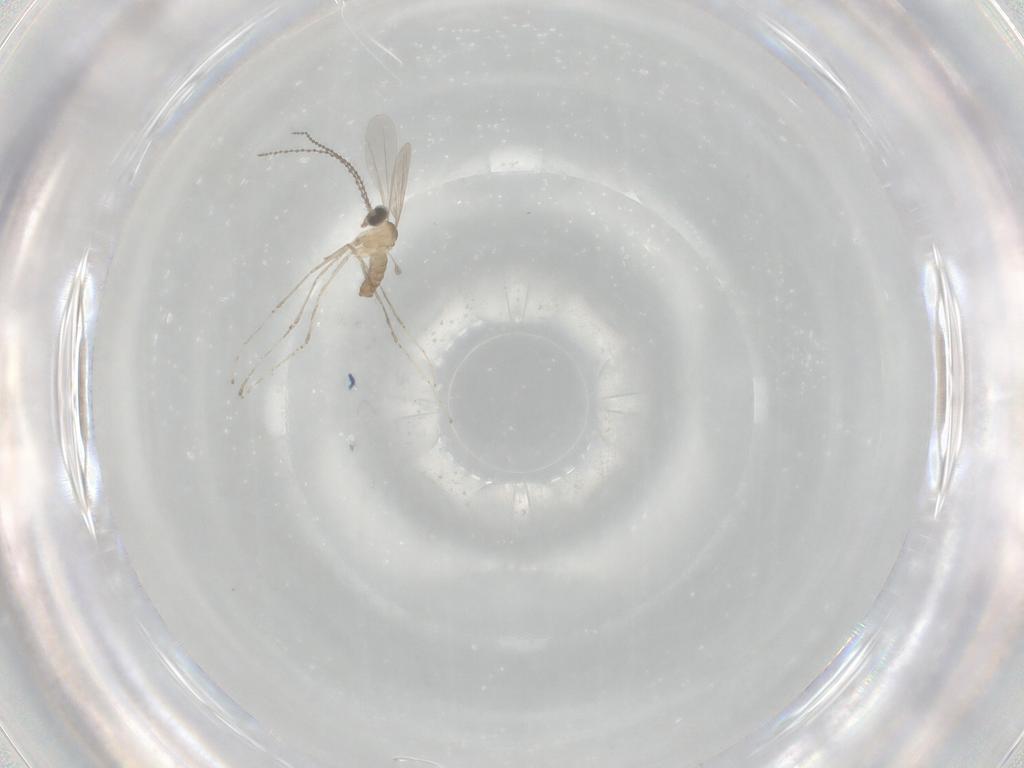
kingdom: Animalia
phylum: Arthropoda
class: Insecta
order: Diptera
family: Cecidomyiidae
